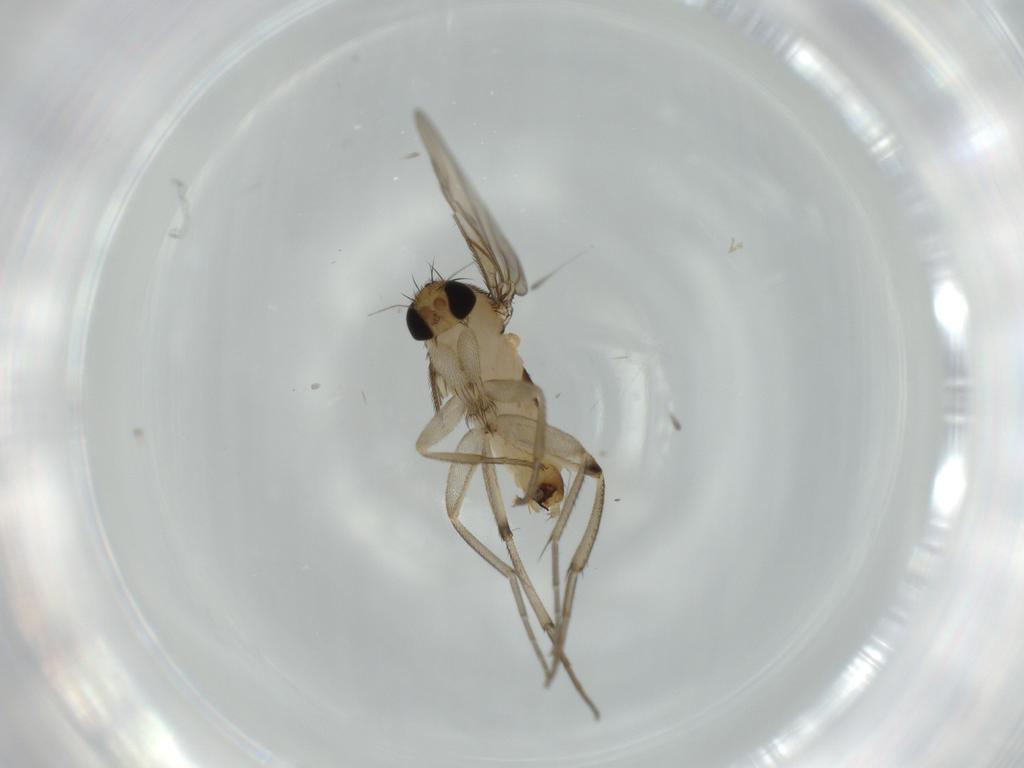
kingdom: Animalia
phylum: Arthropoda
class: Insecta
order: Diptera
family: Phoridae
